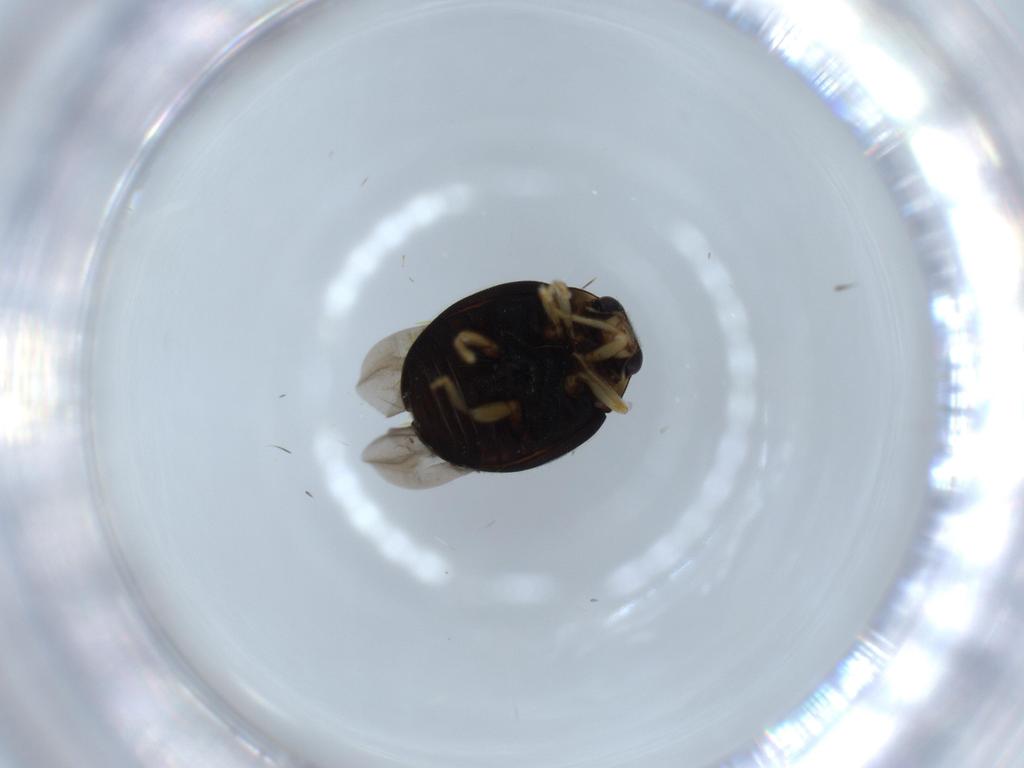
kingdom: Animalia
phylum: Arthropoda
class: Insecta
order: Coleoptera
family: Coccinellidae
